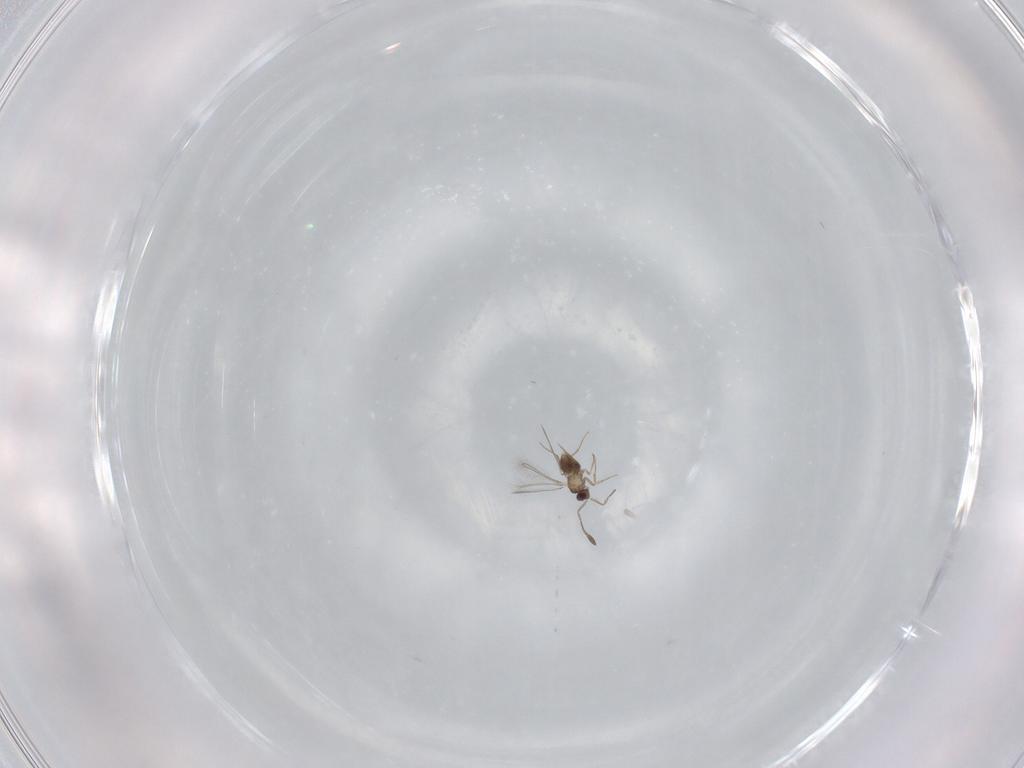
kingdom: Animalia
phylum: Arthropoda
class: Insecta
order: Hymenoptera
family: Mymaridae
